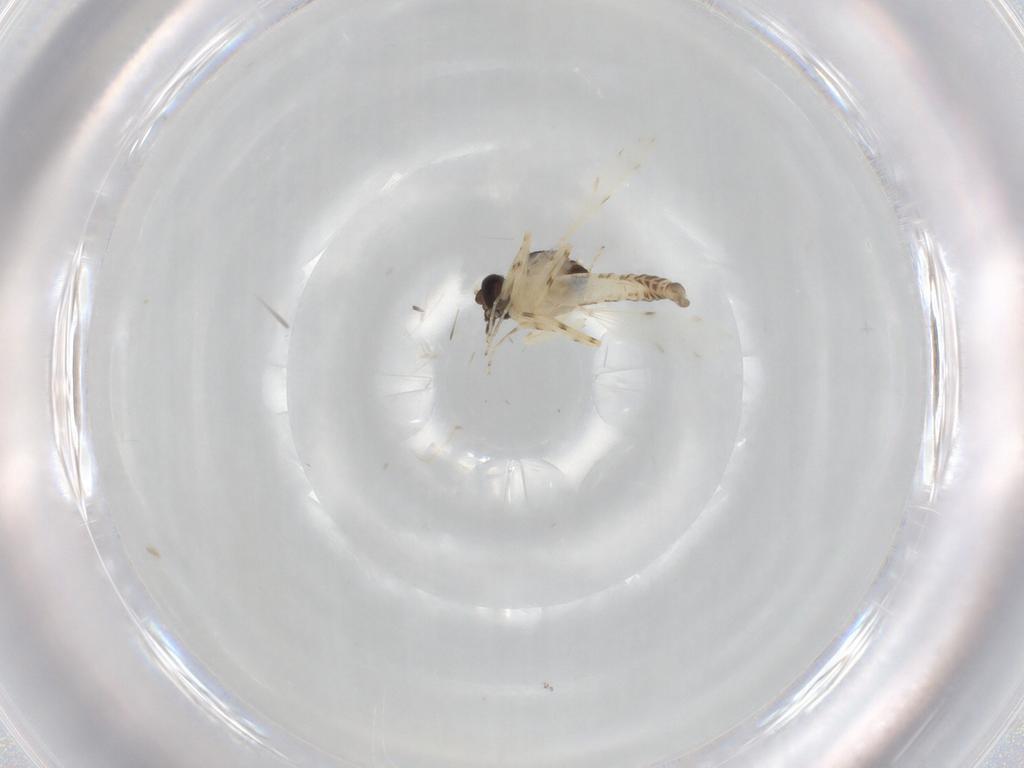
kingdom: Animalia
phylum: Arthropoda
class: Insecta
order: Diptera
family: Ceratopogonidae
